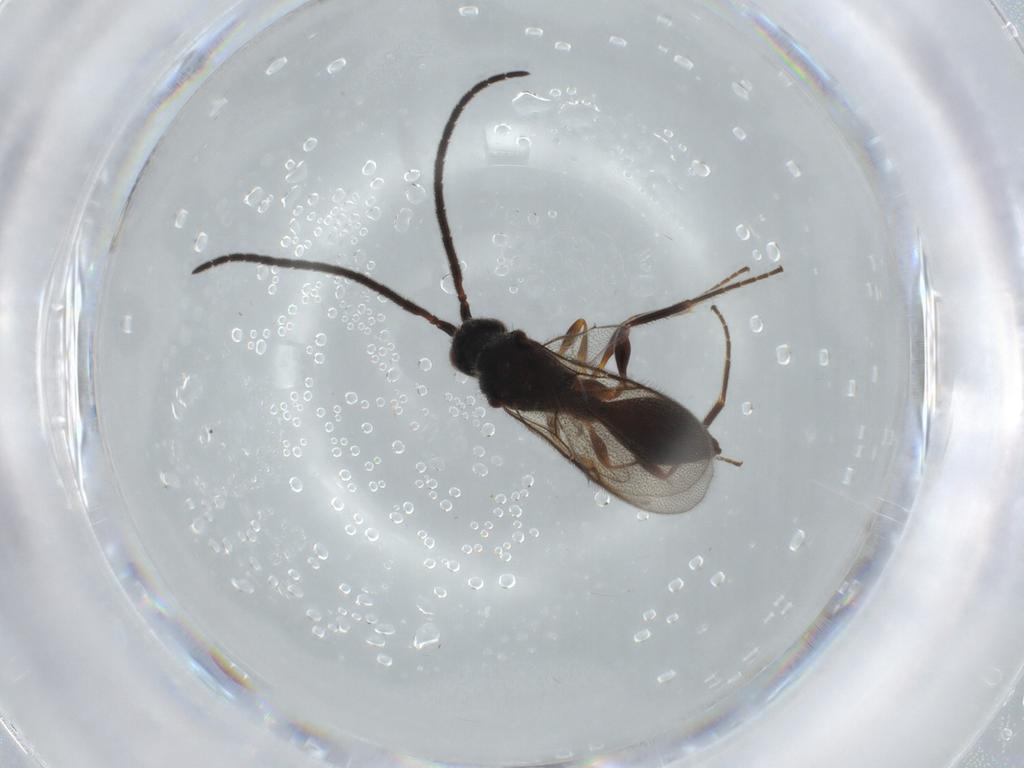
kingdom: Animalia
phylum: Arthropoda
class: Insecta
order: Hymenoptera
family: Diapriidae
